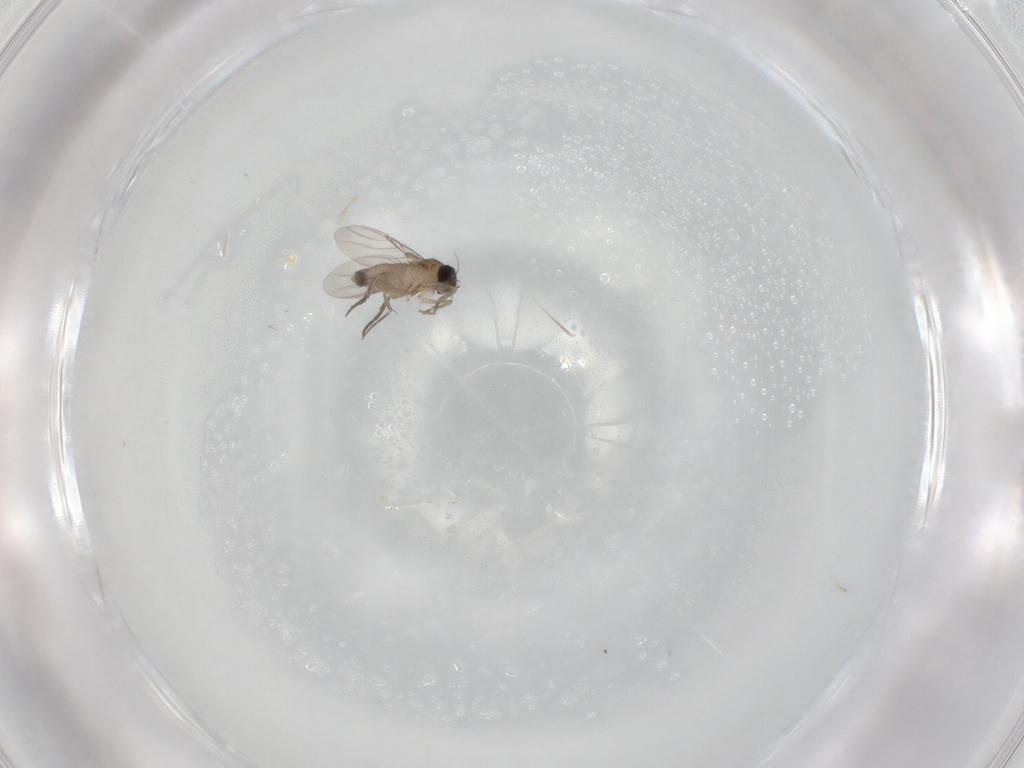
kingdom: Animalia
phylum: Arthropoda
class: Insecta
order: Diptera
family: Phoridae
